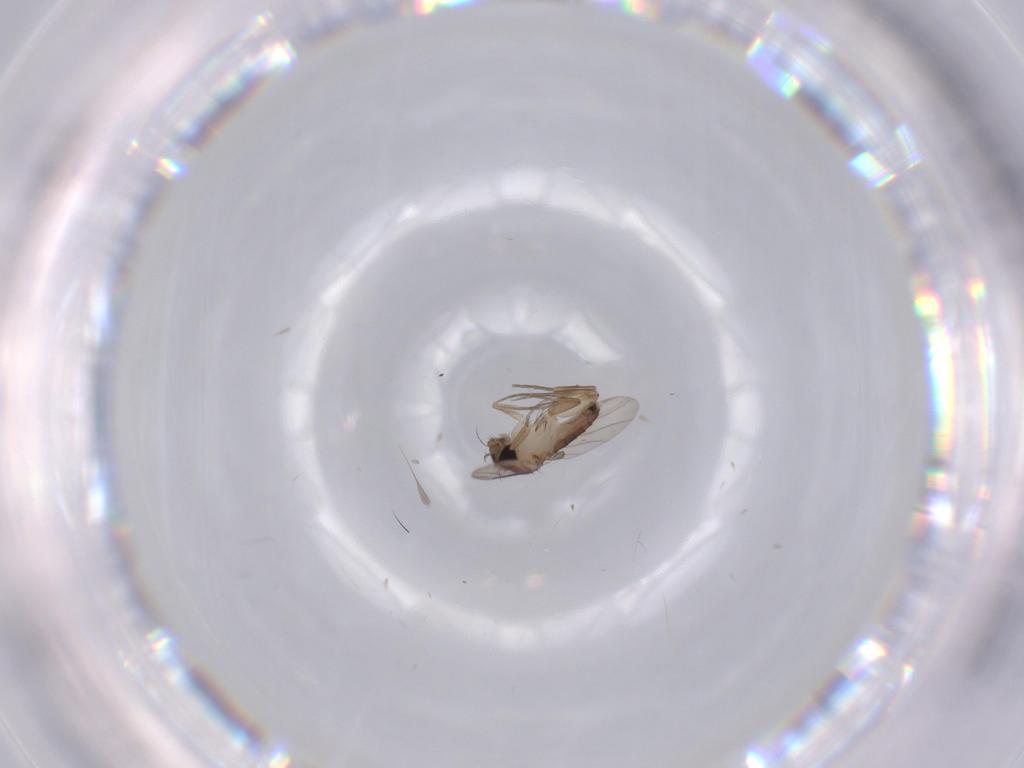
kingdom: Animalia
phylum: Arthropoda
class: Insecta
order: Diptera
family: Phoridae
